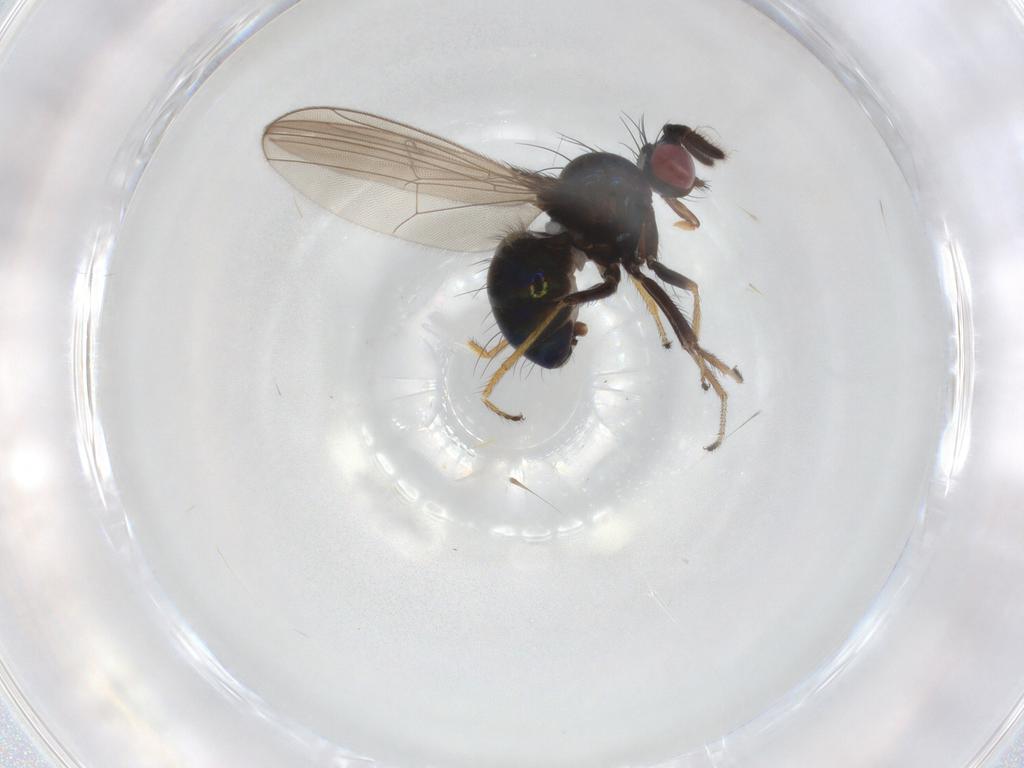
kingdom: Animalia
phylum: Arthropoda
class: Insecta
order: Diptera
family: Ephydridae
